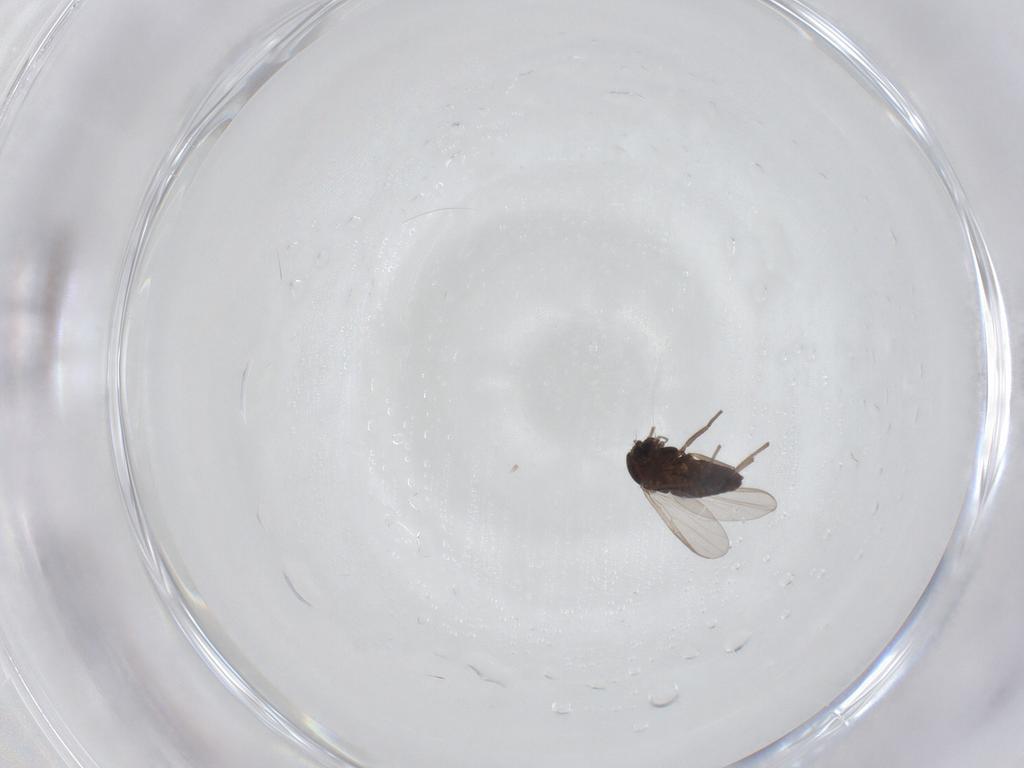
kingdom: Animalia
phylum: Arthropoda
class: Insecta
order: Diptera
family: Chironomidae
